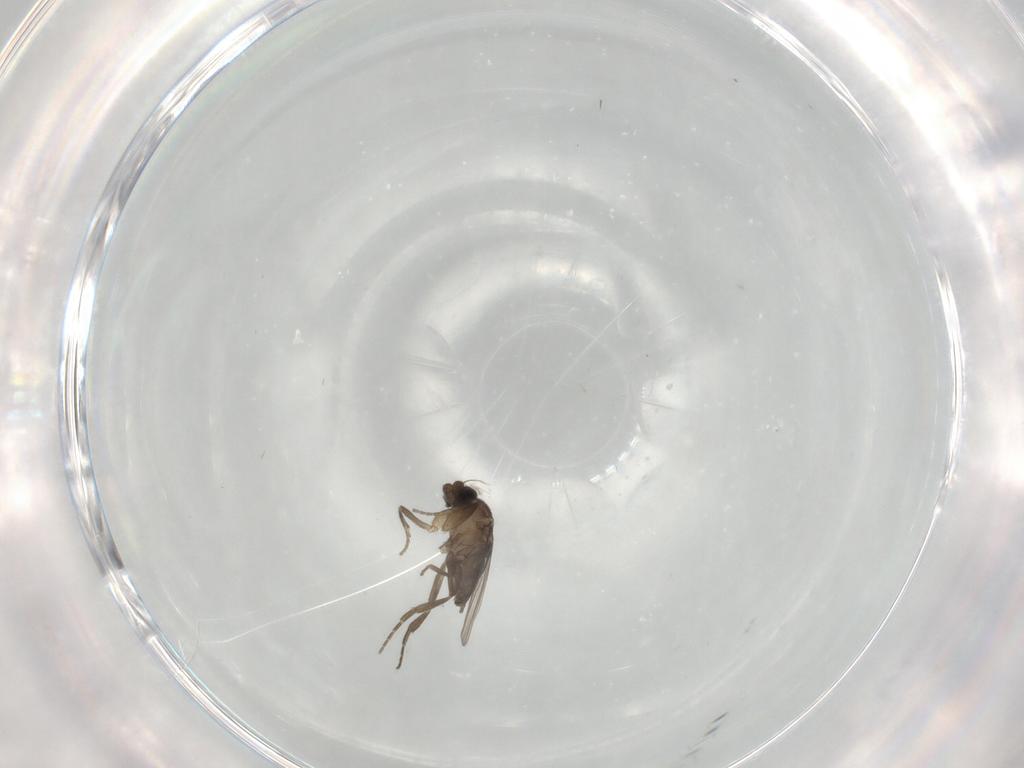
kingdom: Animalia
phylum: Arthropoda
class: Insecta
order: Diptera
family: Phoridae
